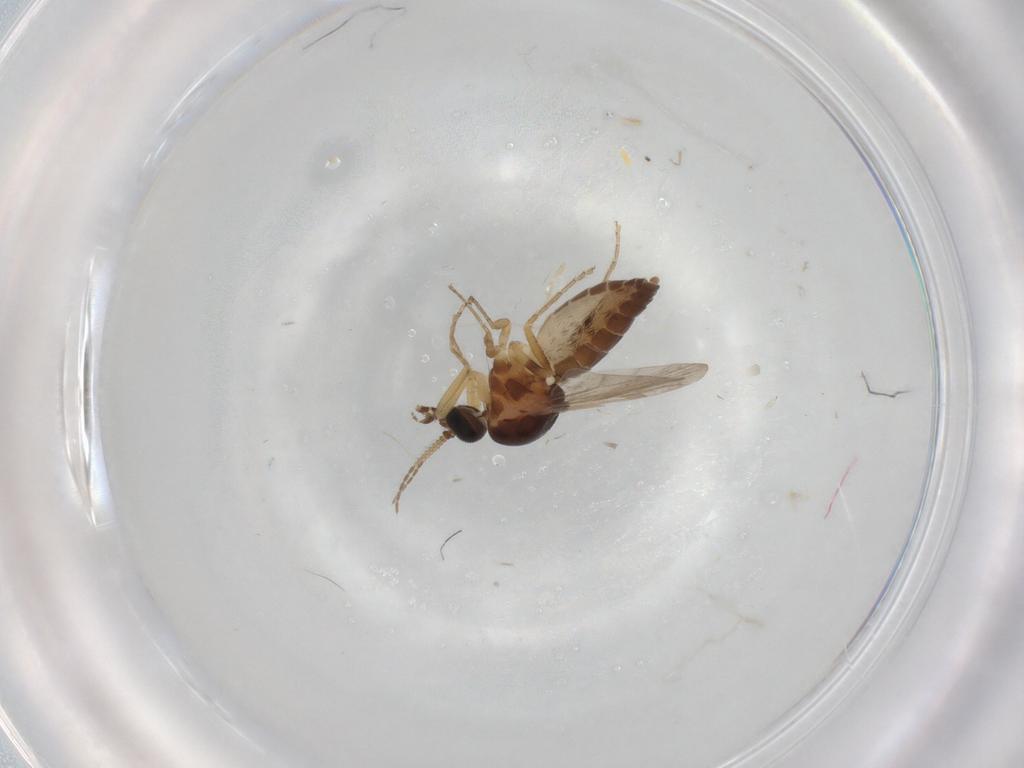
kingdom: Animalia
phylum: Arthropoda
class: Insecta
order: Diptera
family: Ceratopogonidae
